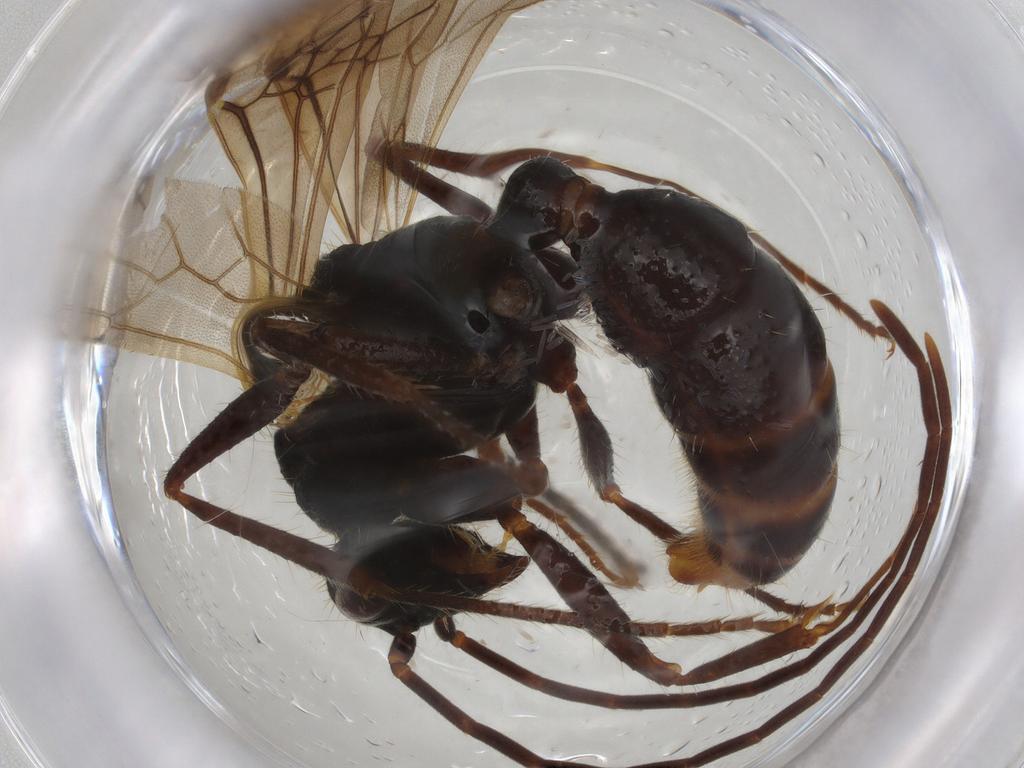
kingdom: Animalia
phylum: Arthropoda
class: Insecta
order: Hymenoptera
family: Formicidae
